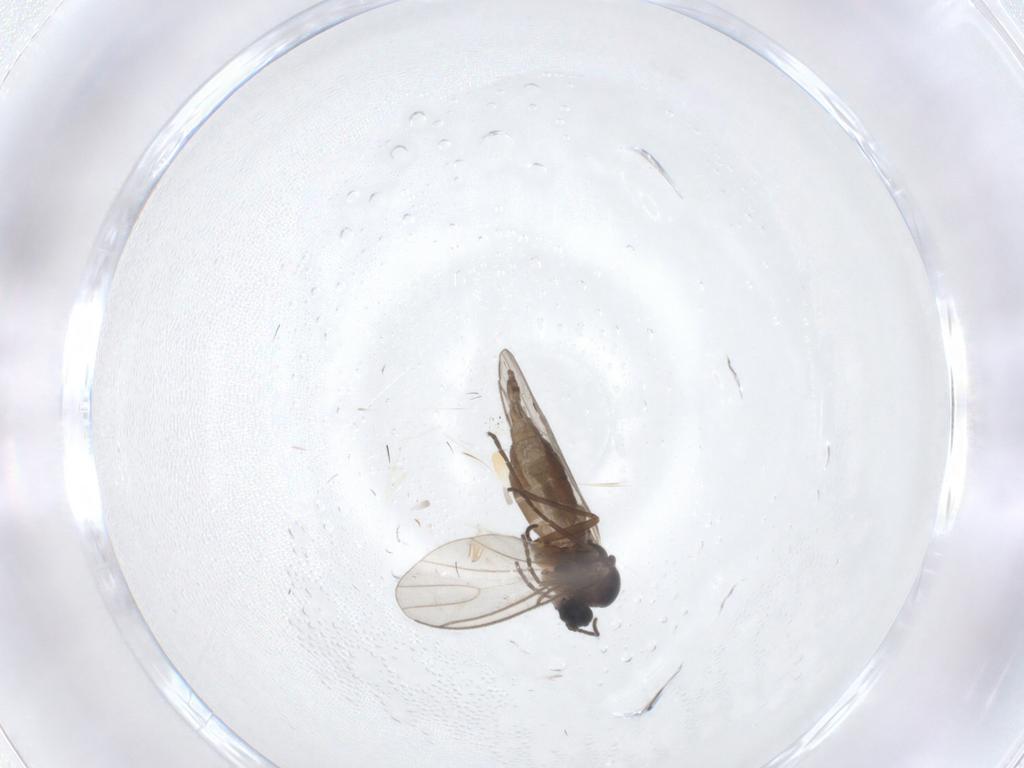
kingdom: Animalia
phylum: Arthropoda
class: Insecta
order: Diptera
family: Sciaridae
